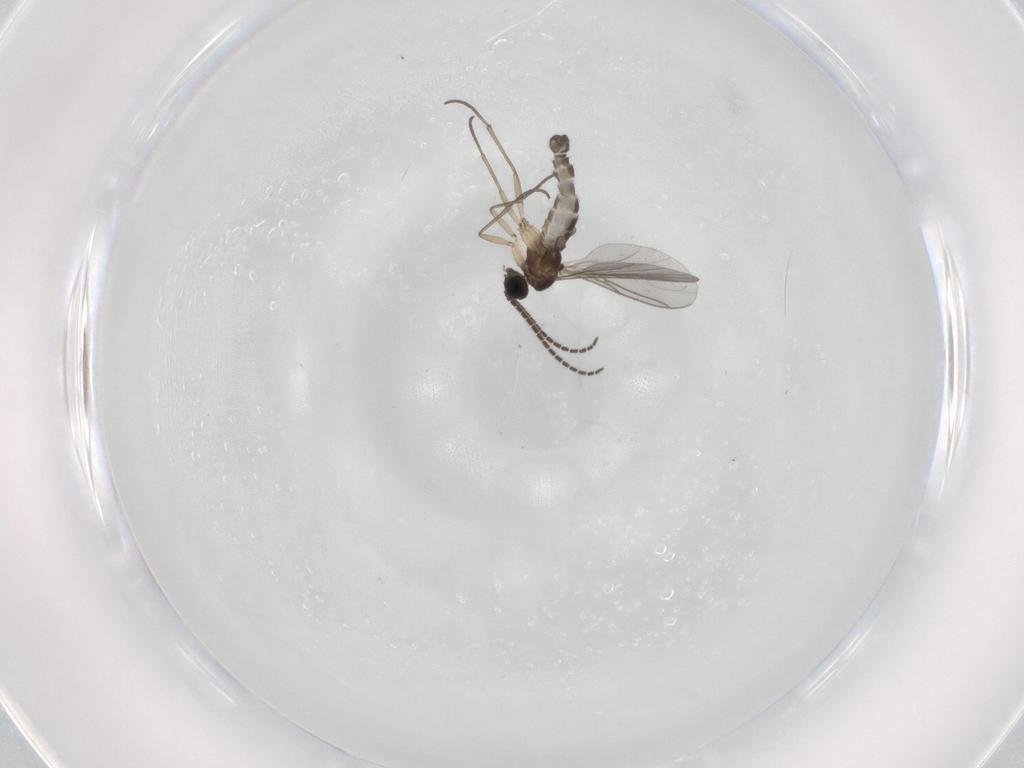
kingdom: Animalia
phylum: Arthropoda
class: Insecta
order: Diptera
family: Sciaridae
